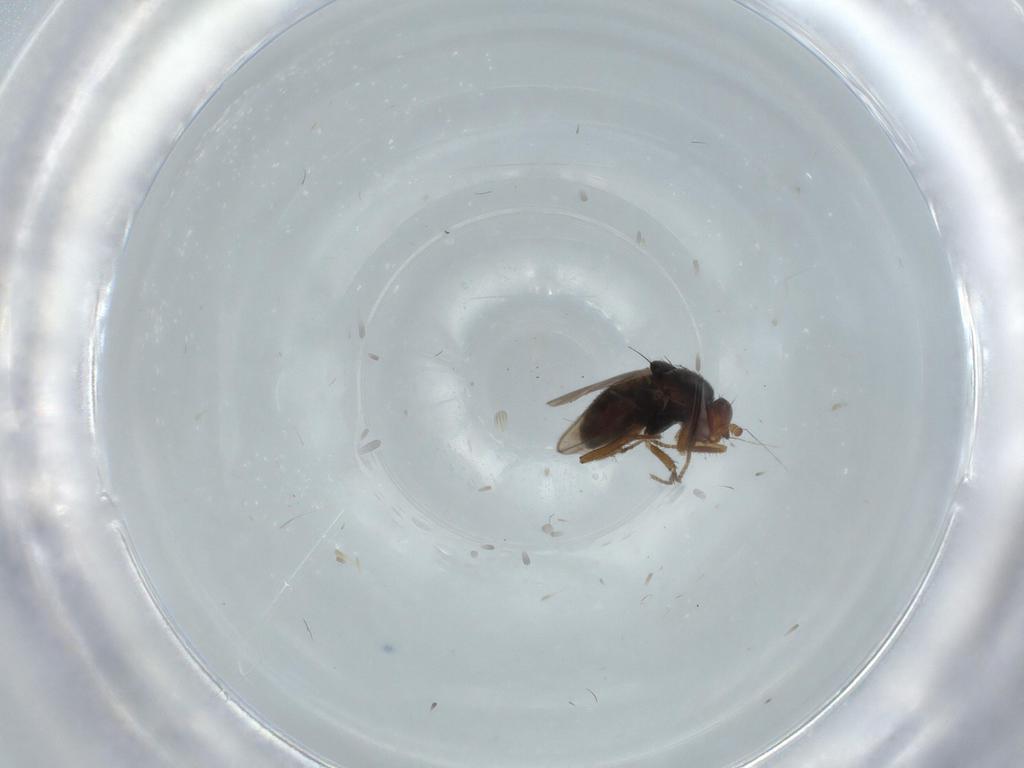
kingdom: Animalia
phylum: Arthropoda
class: Insecta
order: Diptera
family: Sphaeroceridae
